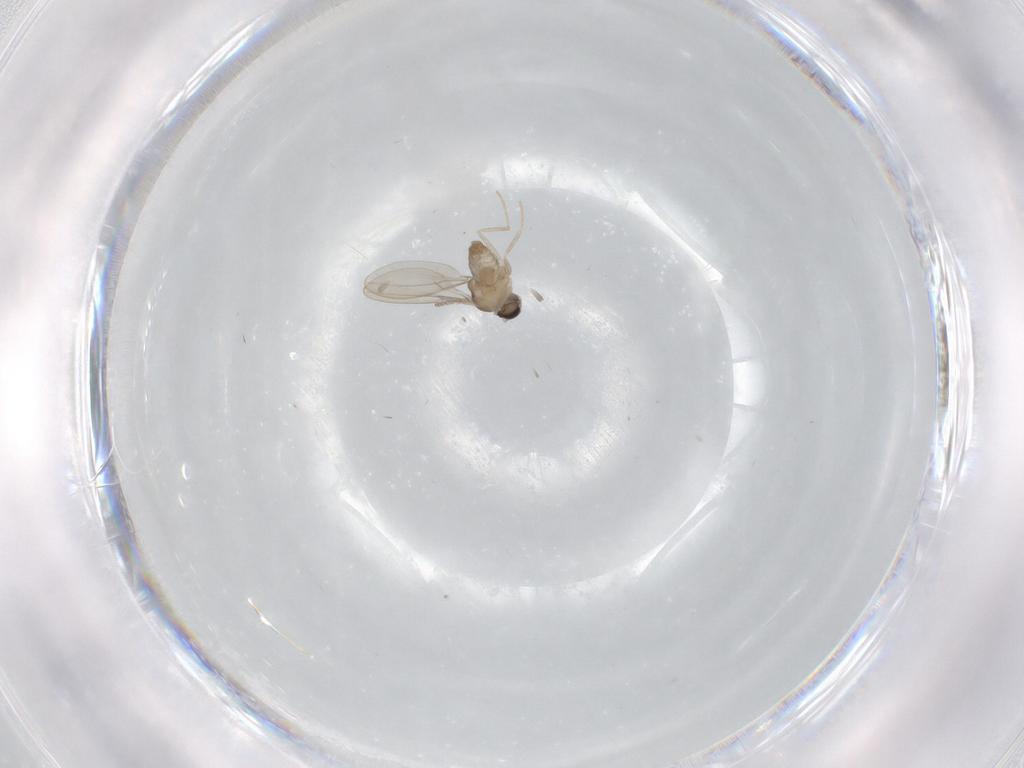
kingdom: Animalia
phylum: Arthropoda
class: Insecta
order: Diptera
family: Cecidomyiidae
